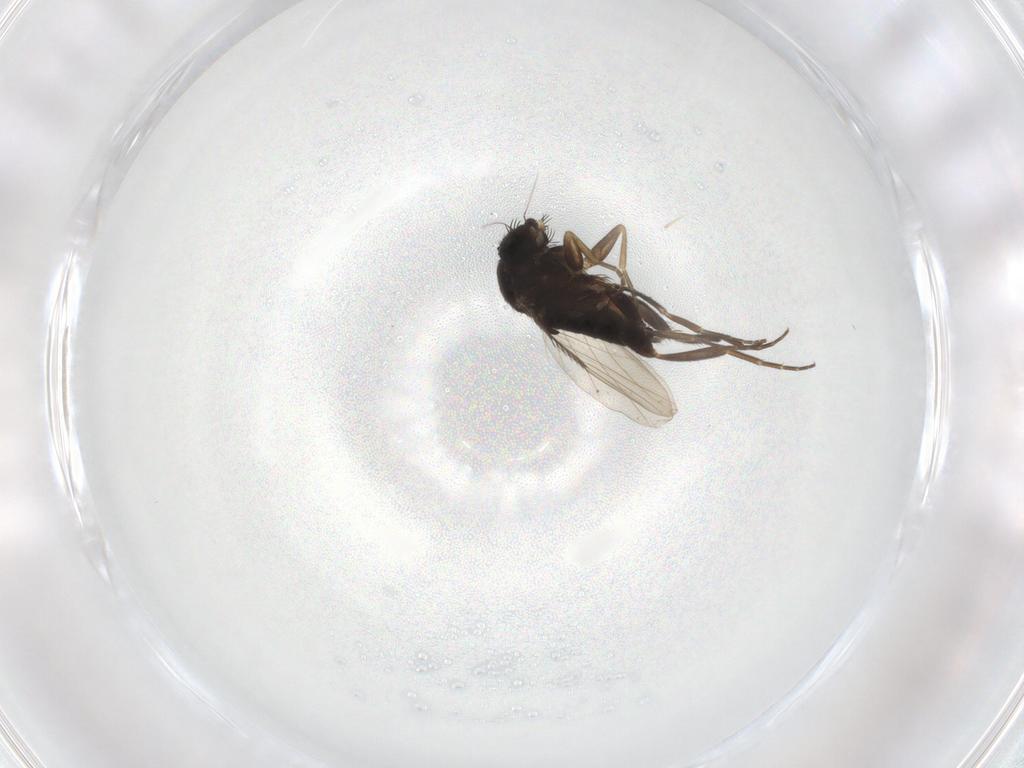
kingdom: Animalia
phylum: Arthropoda
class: Insecta
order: Diptera
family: Phoridae
